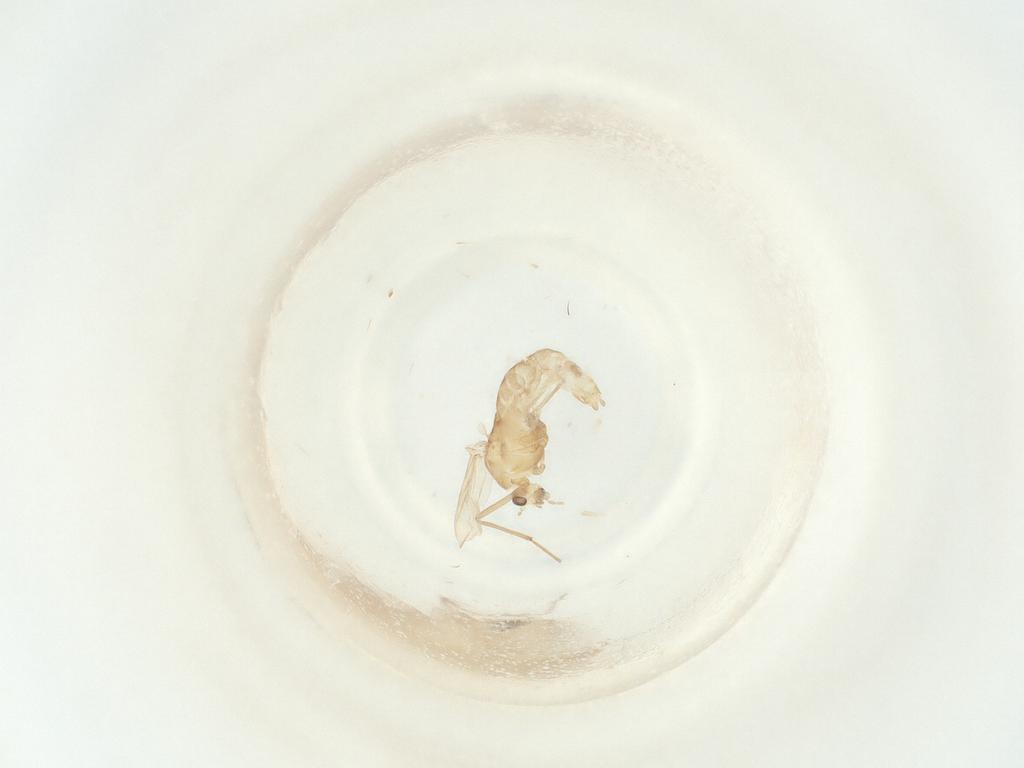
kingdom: Animalia
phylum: Arthropoda
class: Insecta
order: Diptera
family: Chironomidae
